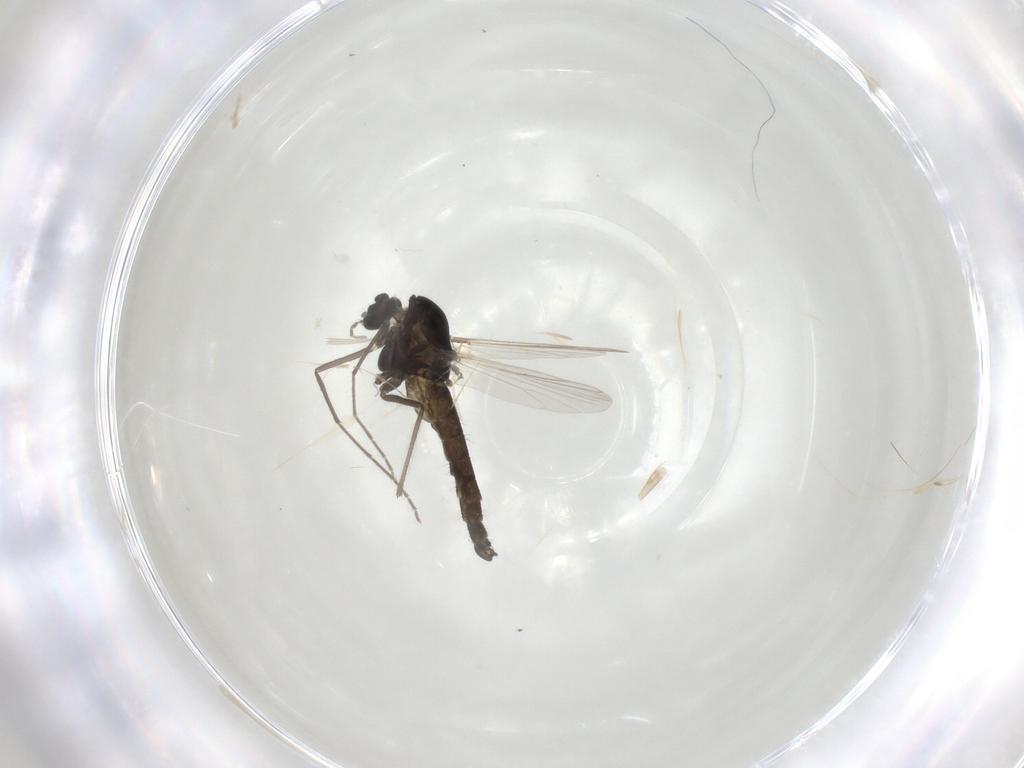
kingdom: Animalia
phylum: Arthropoda
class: Insecta
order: Diptera
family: Chironomidae
